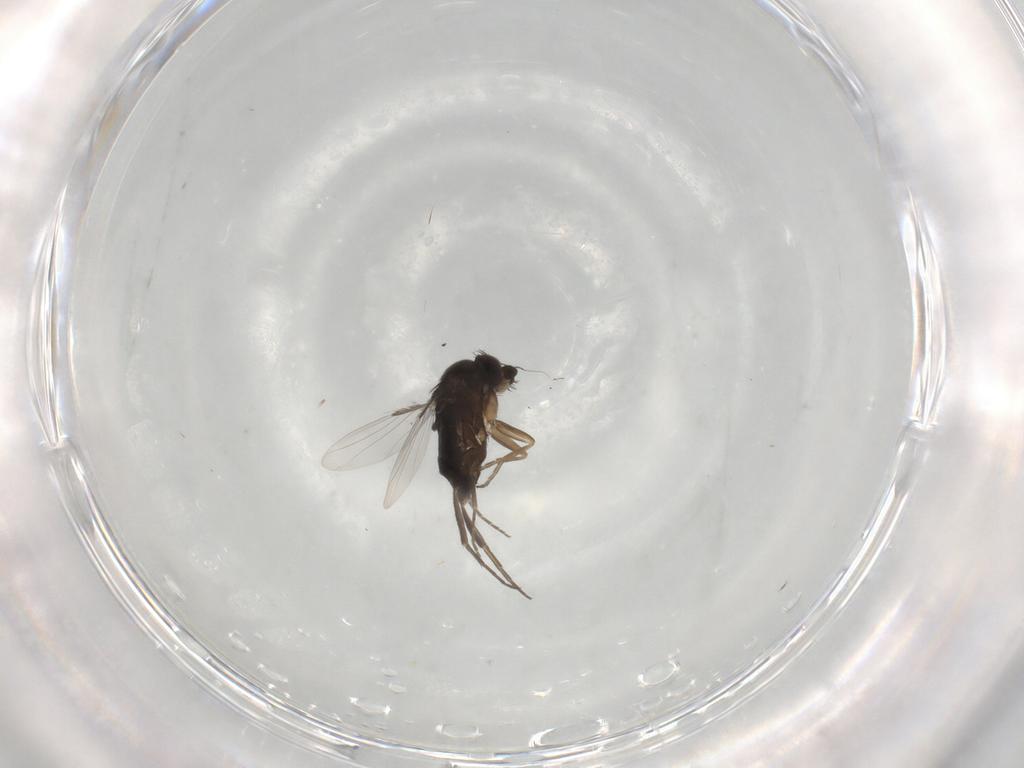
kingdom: Animalia
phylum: Arthropoda
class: Insecta
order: Diptera
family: Phoridae
